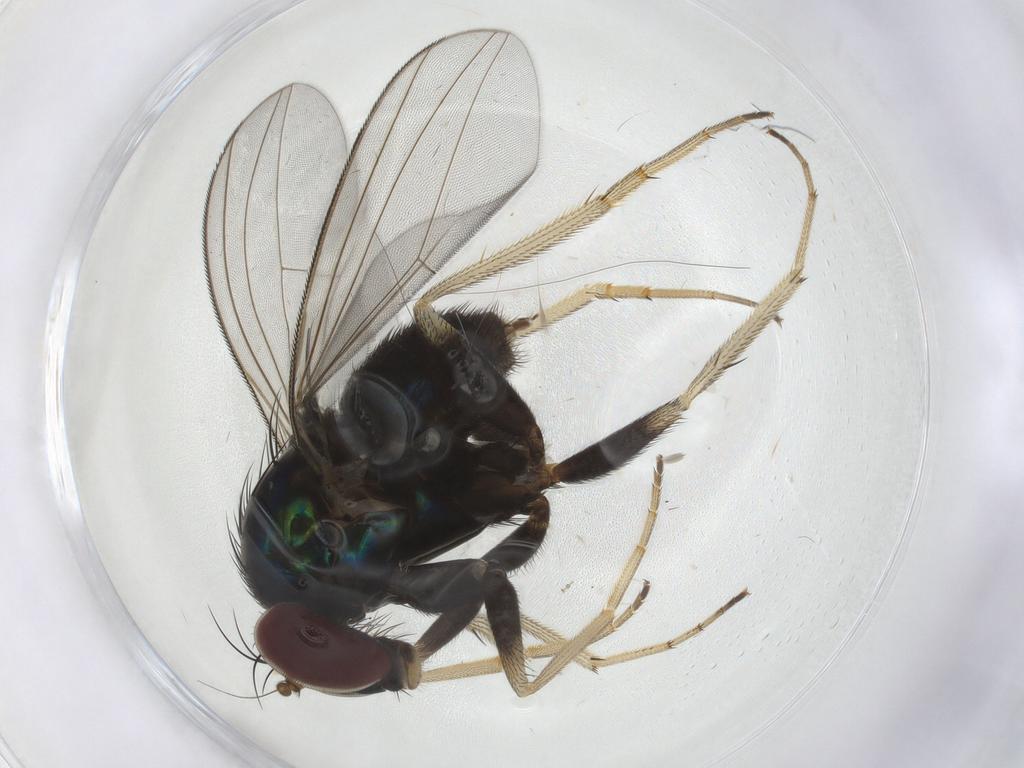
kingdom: Animalia
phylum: Arthropoda
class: Insecta
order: Diptera
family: Dolichopodidae
